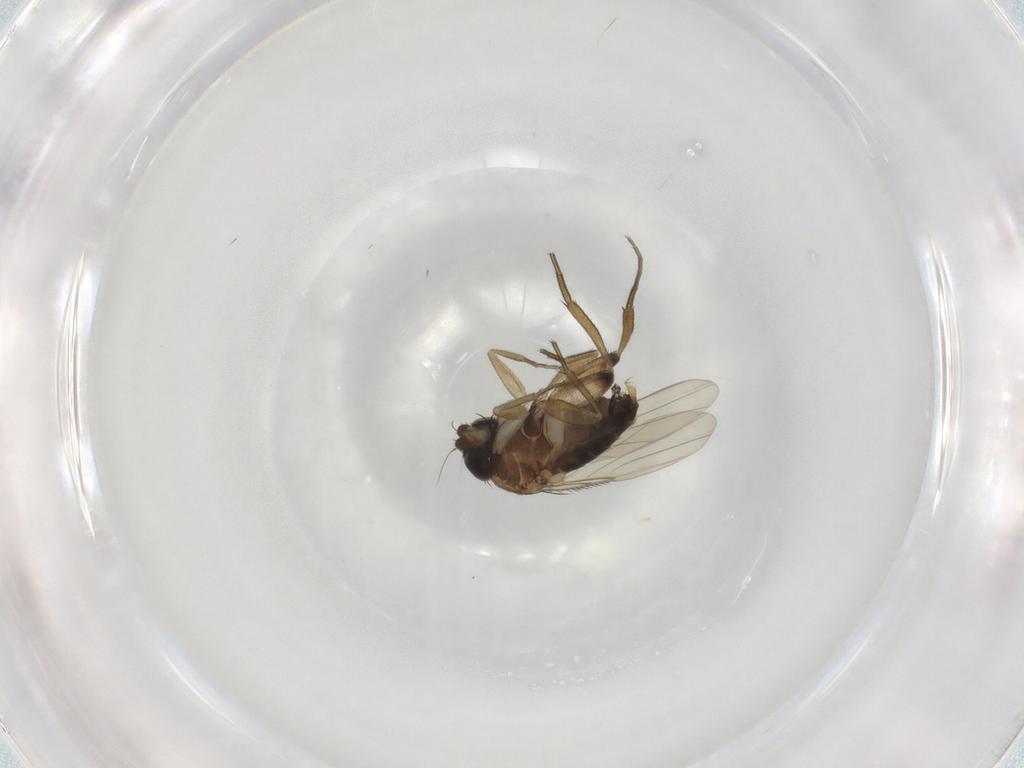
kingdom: Animalia
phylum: Arthropoda
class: Insecta
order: Diptera
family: Phoridae
